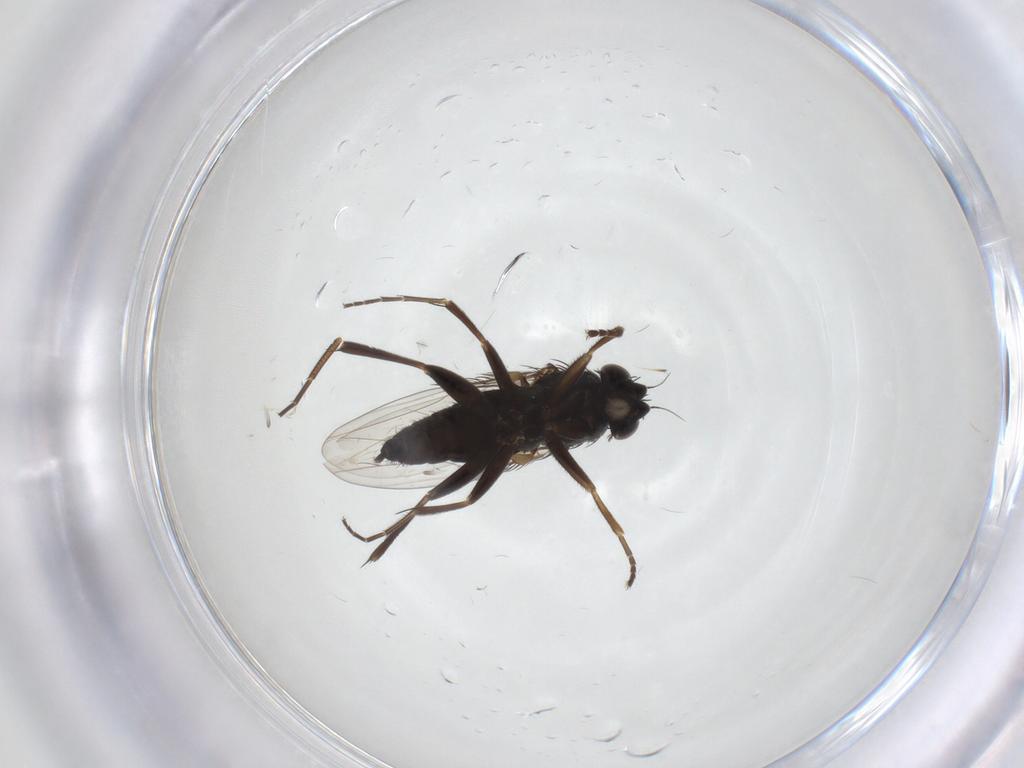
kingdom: Animalia
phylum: Arthropoda
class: Insecta
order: Diptera
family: Phoridae
